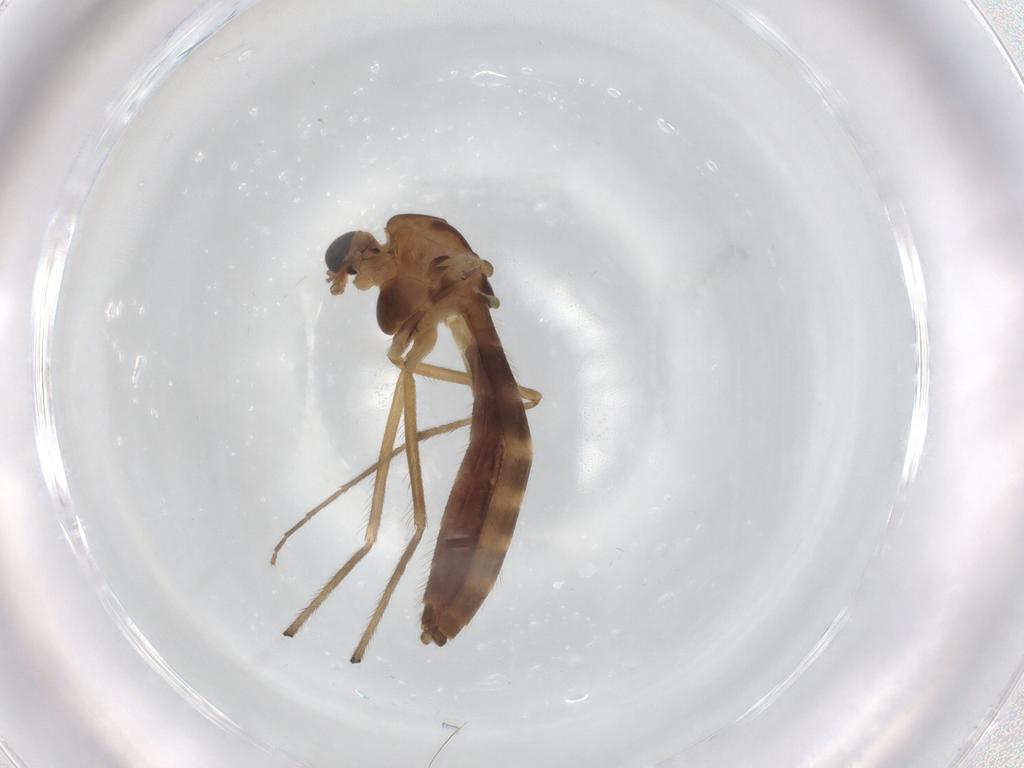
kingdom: Animalia
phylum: Arthropoda
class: Insecta
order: Diptera
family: Chironomidae
